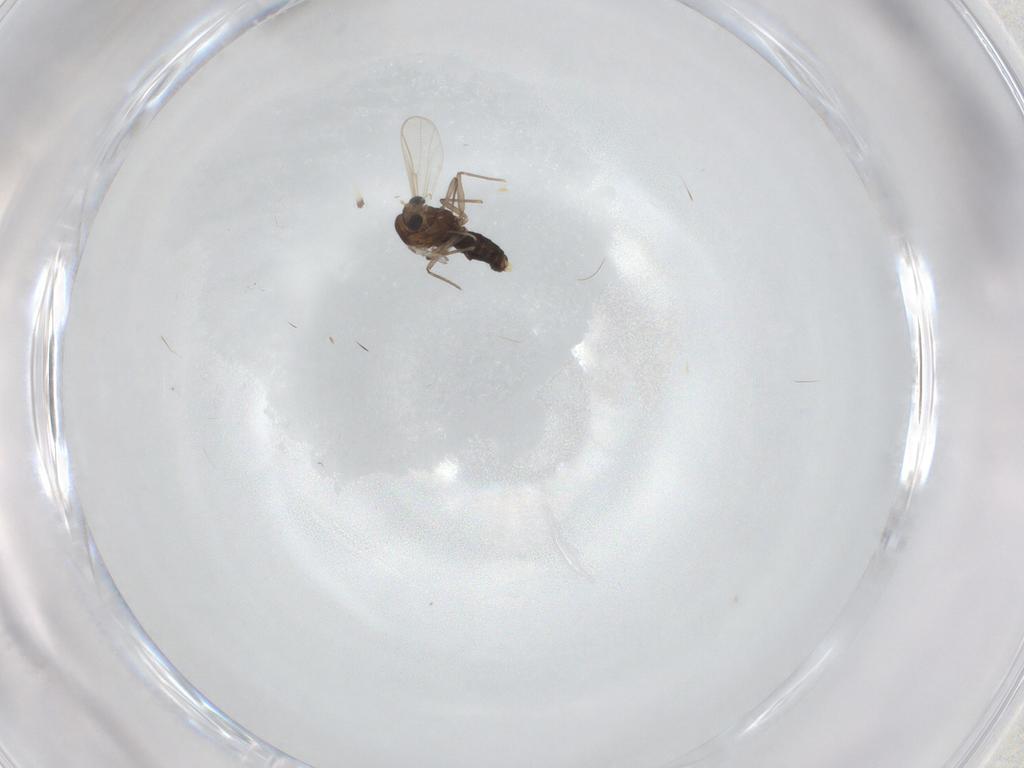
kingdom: Animalia
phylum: Arthropoda
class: Insecta
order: Diptera
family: Chironomidae
